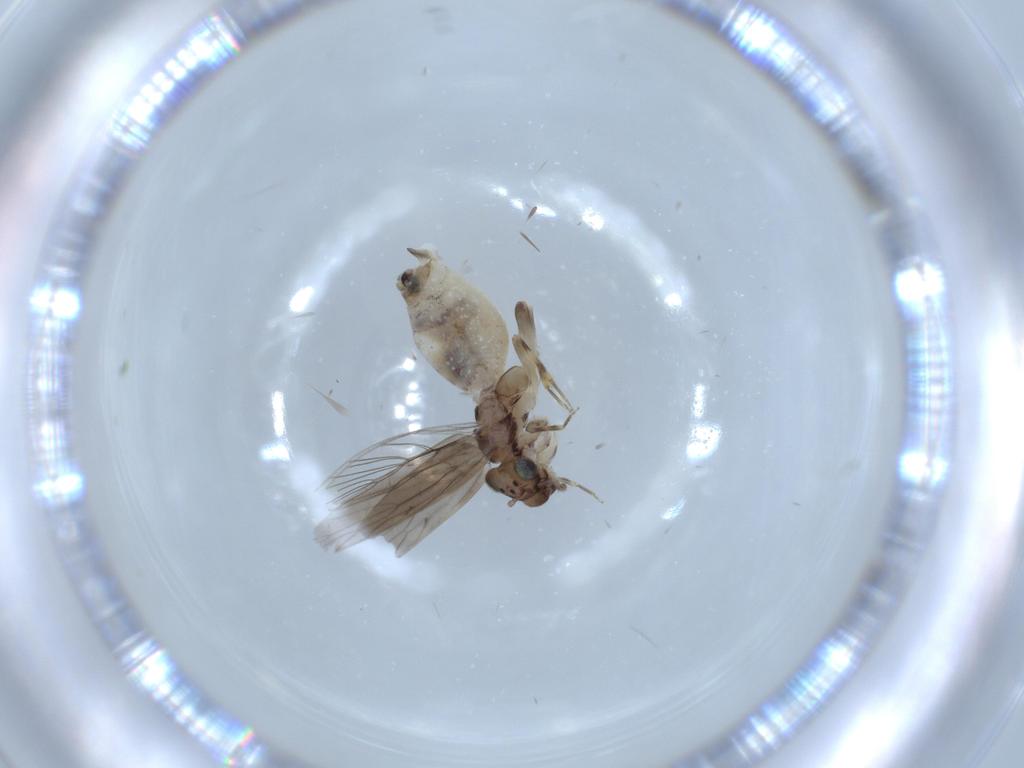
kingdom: Animalia
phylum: Arthropoda
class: Insecta
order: Psocodea
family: Lepidopsocidae
